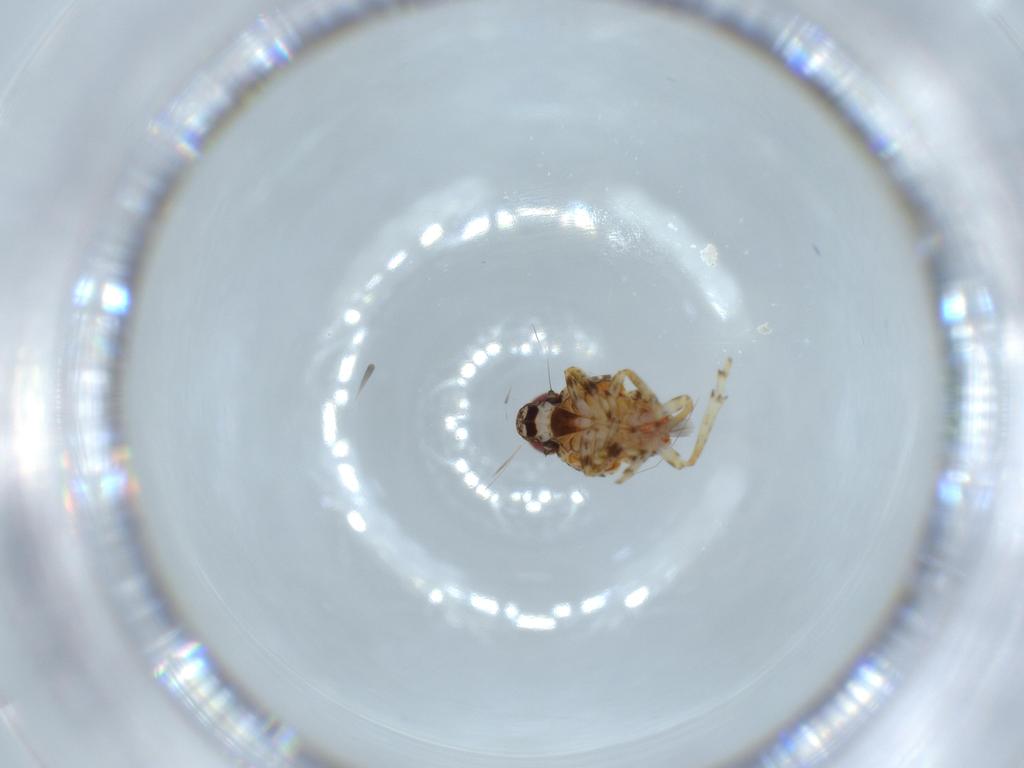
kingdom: Animalia
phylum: Arthropoda
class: Insecta
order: Hemiptera
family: Issidae
